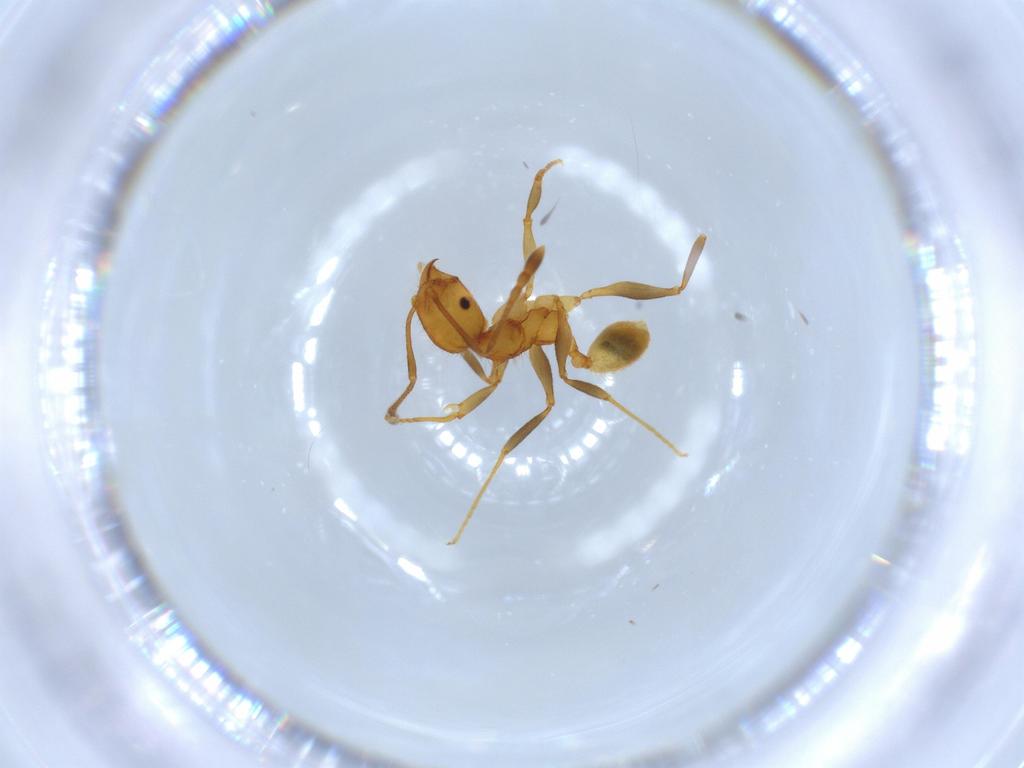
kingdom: Animalia
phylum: Arthropoda
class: Insecta
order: Hymenoptera
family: Formicidae
